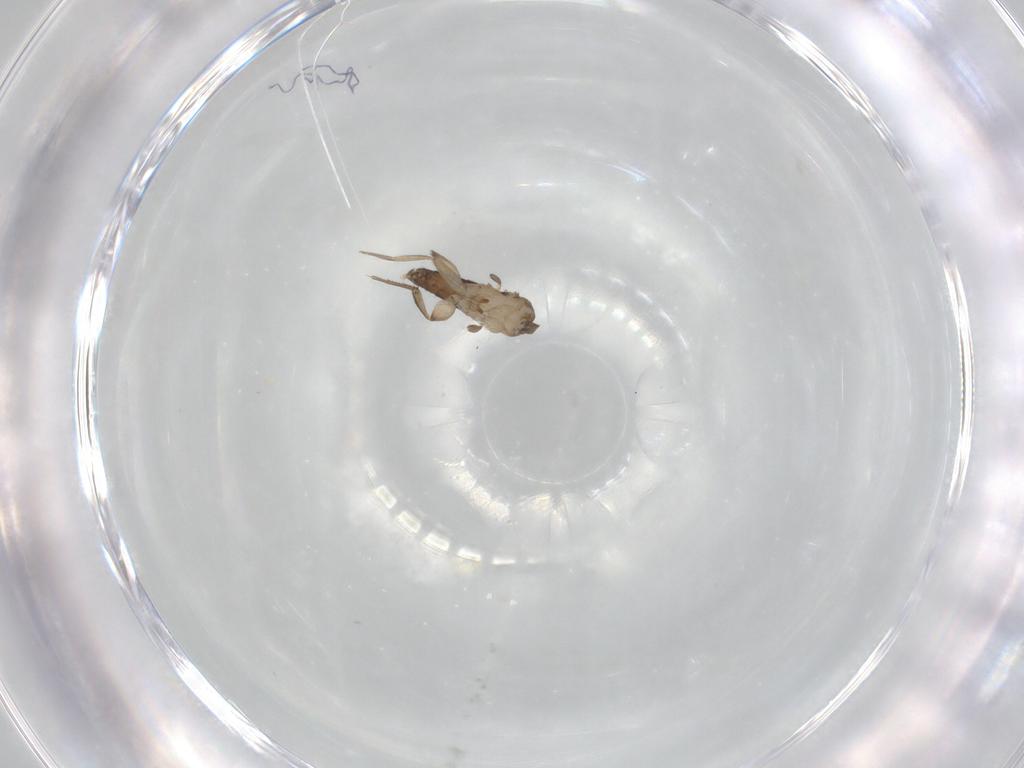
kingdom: Animalia
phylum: Arthropoda
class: Insecta
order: Diptera
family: Phoridae
